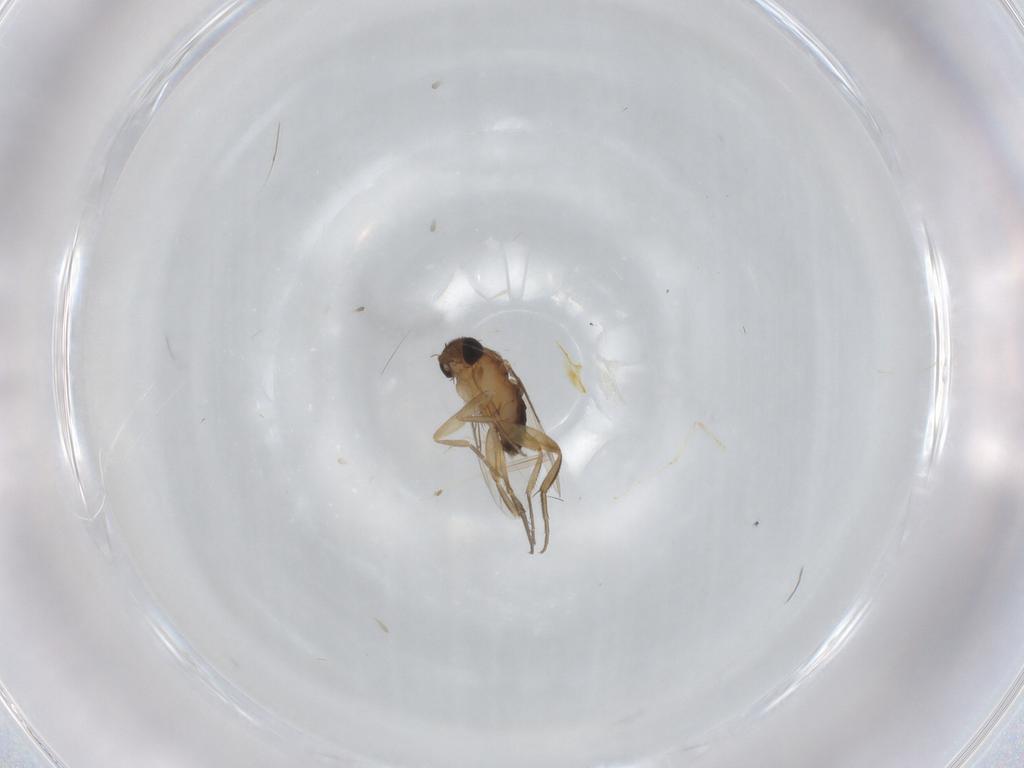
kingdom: Animalia
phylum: Arthropoda
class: Insecta
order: Diptera
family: Phoridae
